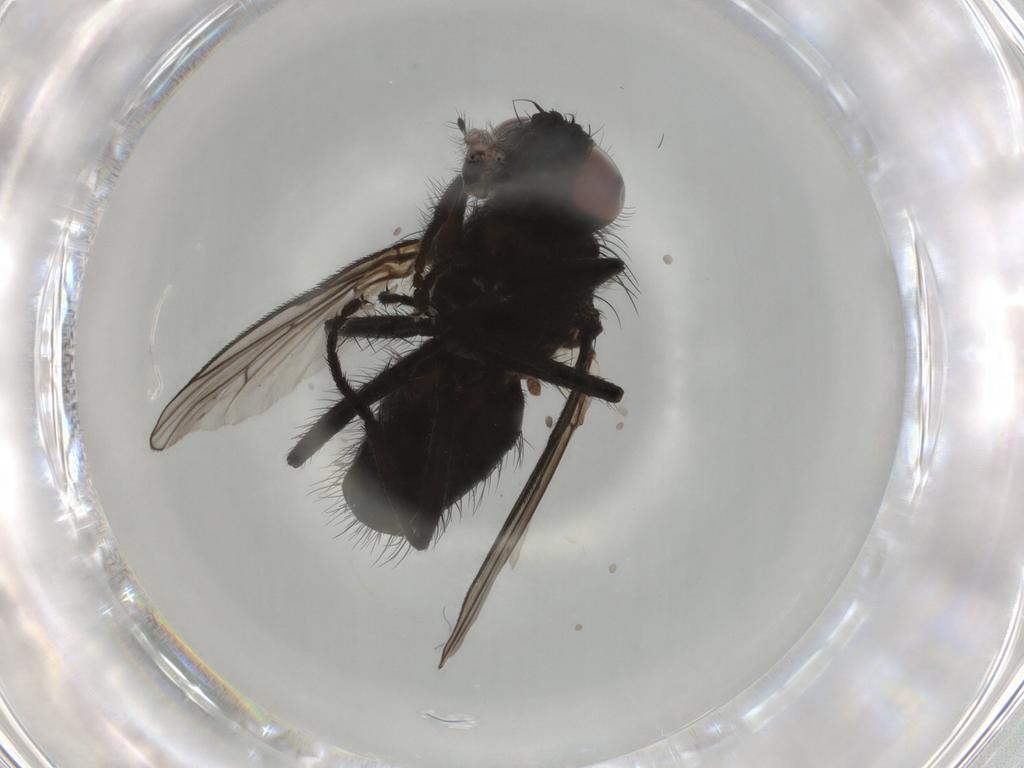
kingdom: Animalia
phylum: Arthropoda
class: Insecta
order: Diptera
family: Muscidae
